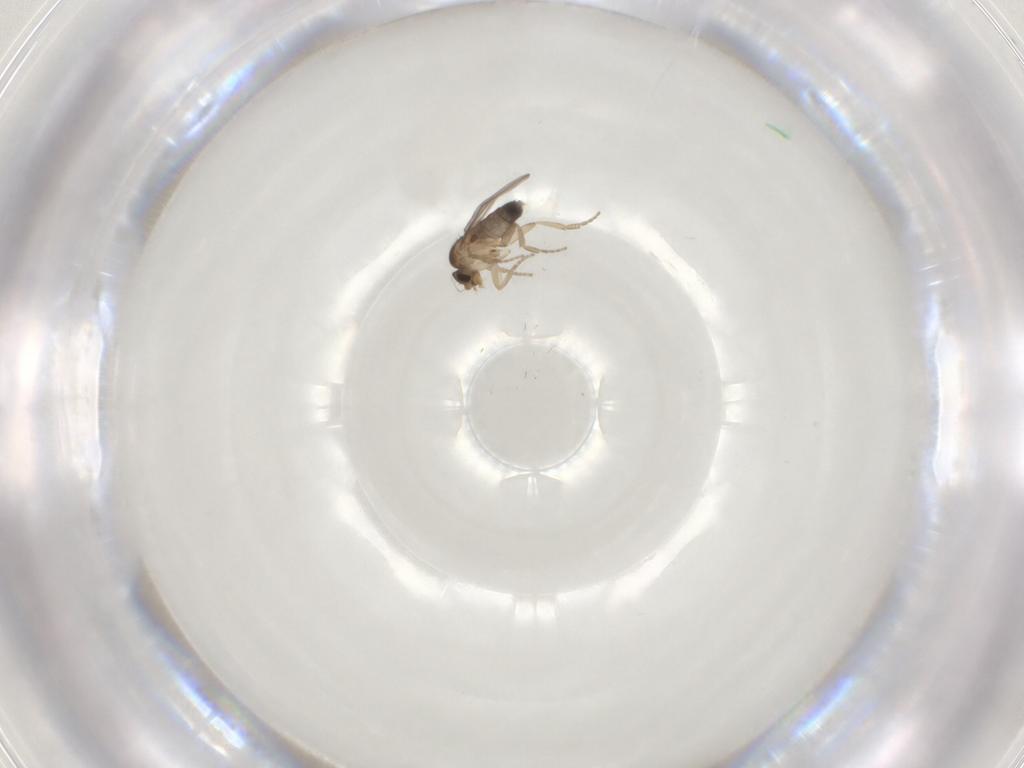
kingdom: Animalia
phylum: Arthropoda
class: Insecta
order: Diptera
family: Phoridae
